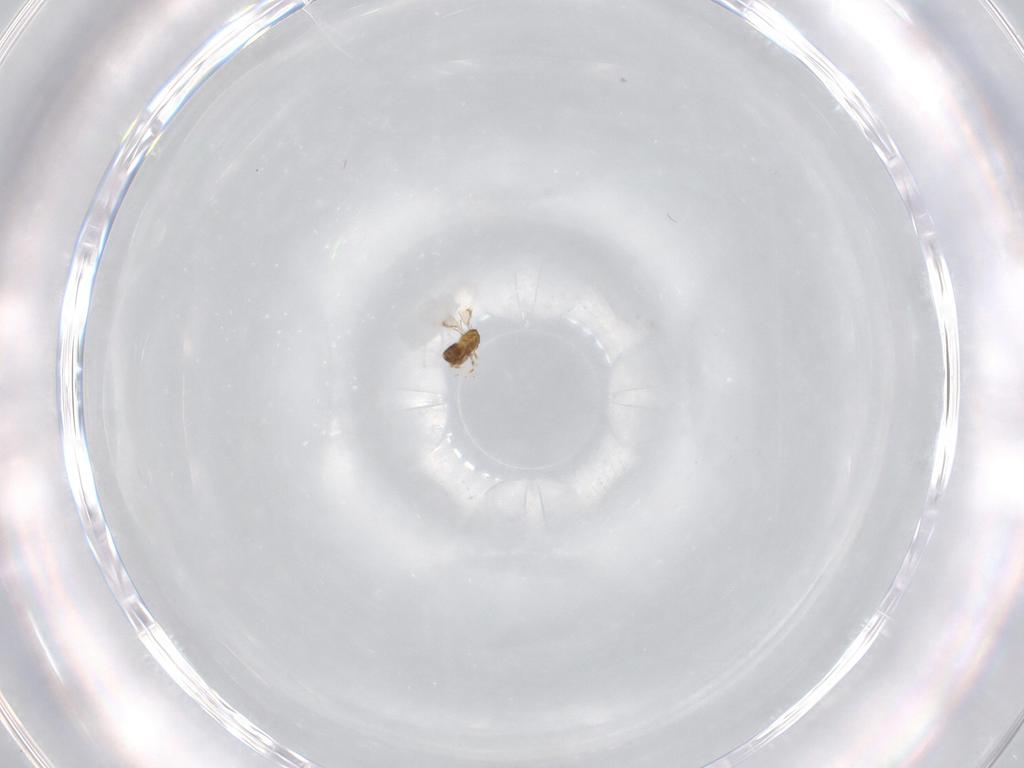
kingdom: Animalia
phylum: Arthropoda
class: Insecta
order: Hymenoptera
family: Trichogrammatidae
